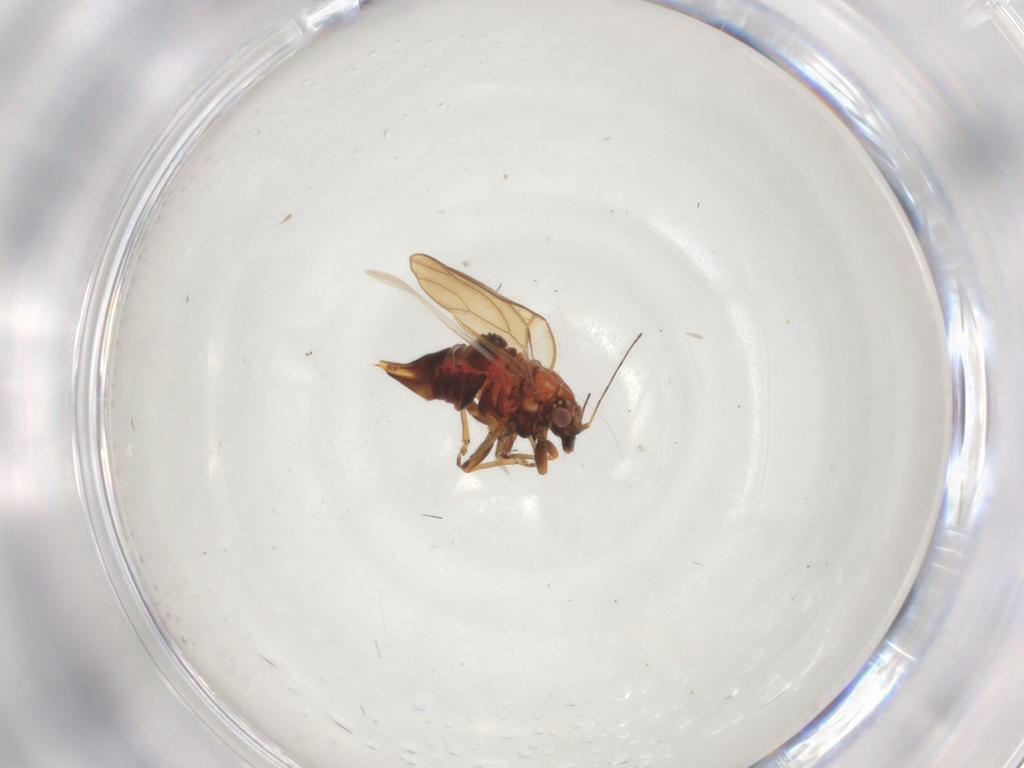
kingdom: Animalia
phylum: Arthropoda
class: Insecta
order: Hemiptera
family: Psyllidae
